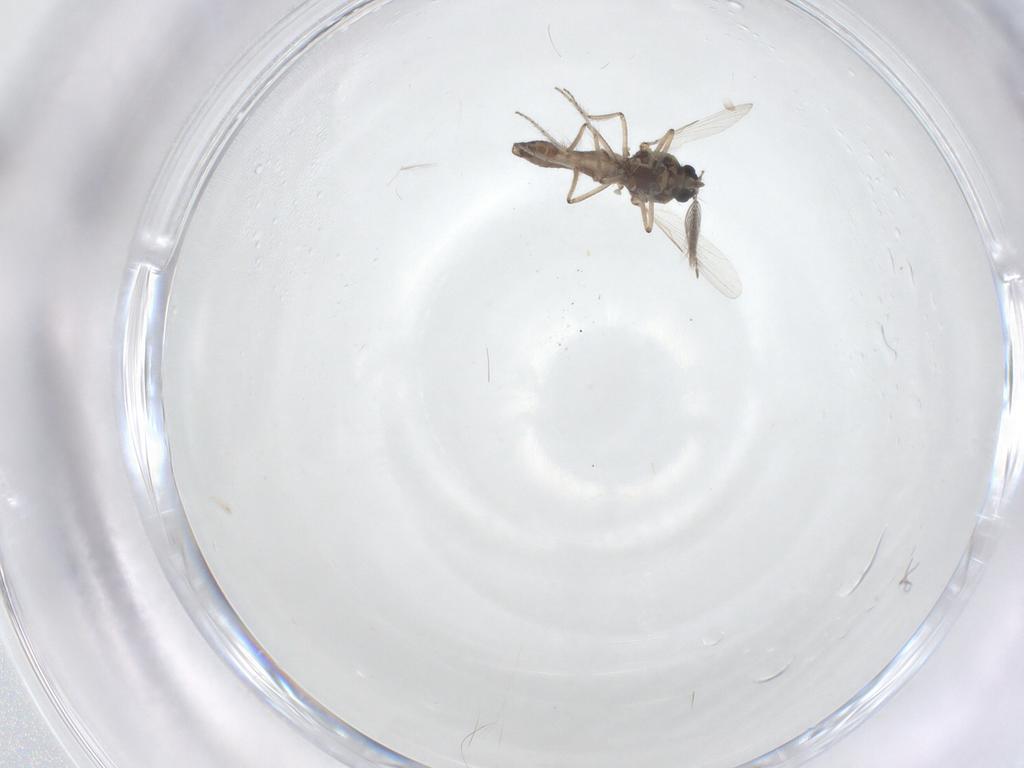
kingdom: Animalia
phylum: Arthropoda
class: Insecta
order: Diptera
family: Ceratopogonidae
